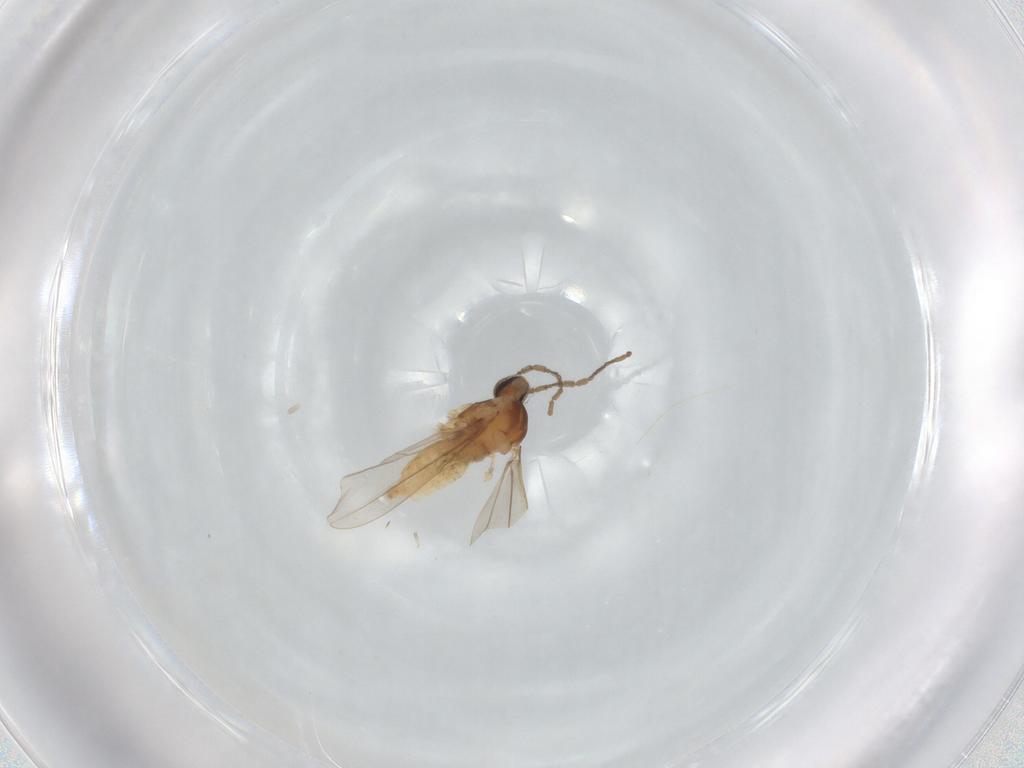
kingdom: Animalia
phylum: Arthropoda
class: Insecta
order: Diptera
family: Cecidomyiidae
